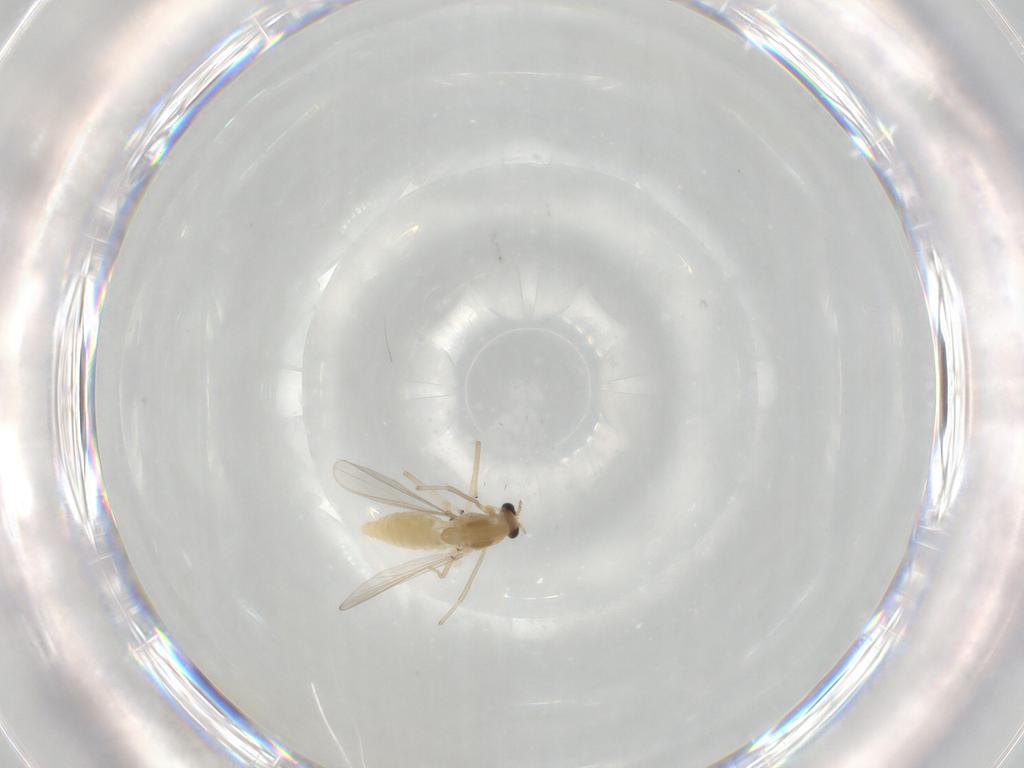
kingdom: Animalia
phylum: Arthropoda
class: Insecta
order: Diptera
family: Chironomidae
